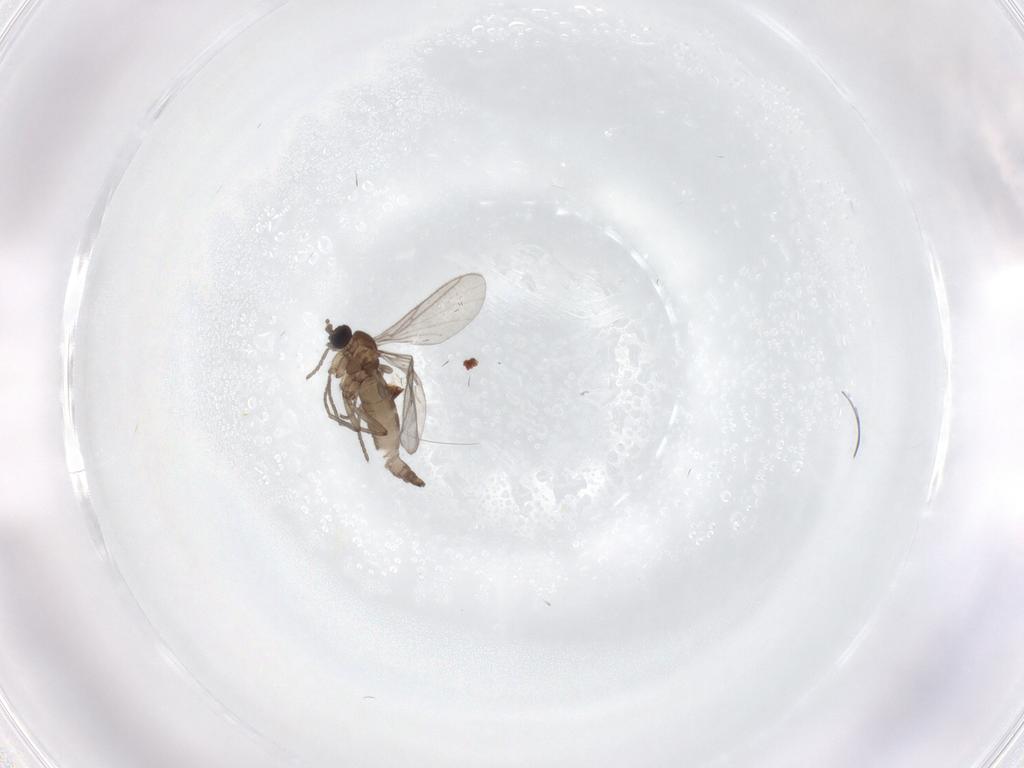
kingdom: Animalia
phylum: Arthropoda
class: Insecta
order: Diptera
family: Sciaridae
